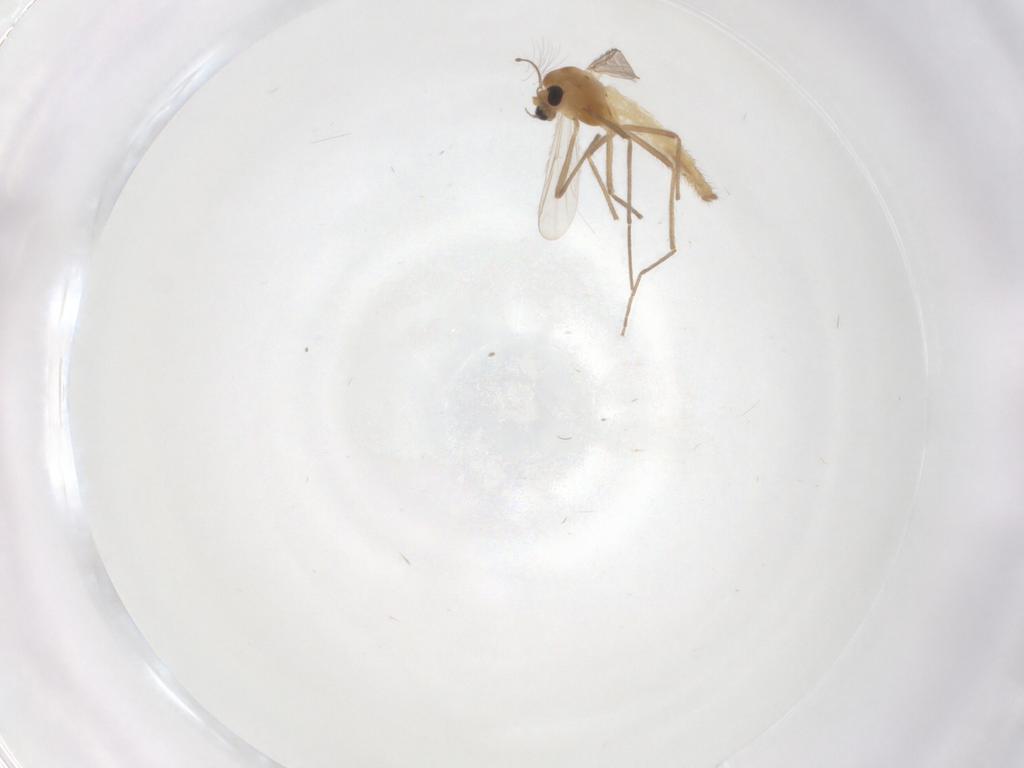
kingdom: Animalia
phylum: Arthropoda
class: Insecta
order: Diptera
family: Chironomidae
